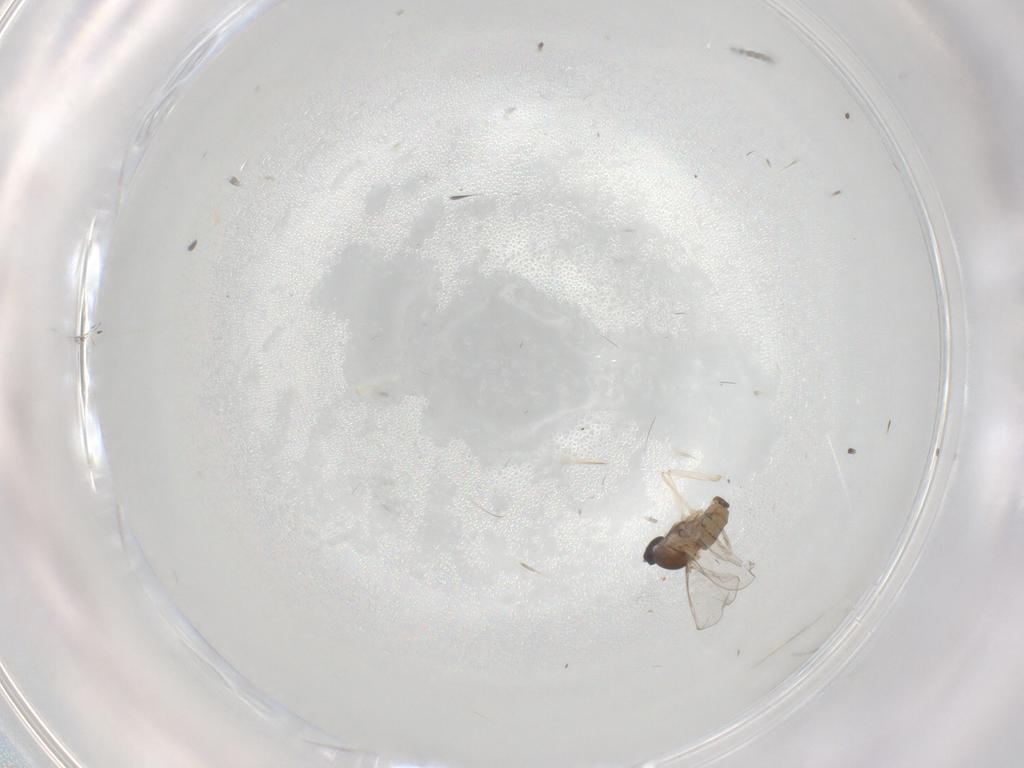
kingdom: Animalia
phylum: Arthropoda
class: Insecta
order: Diptera
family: Cecidomyiidae
